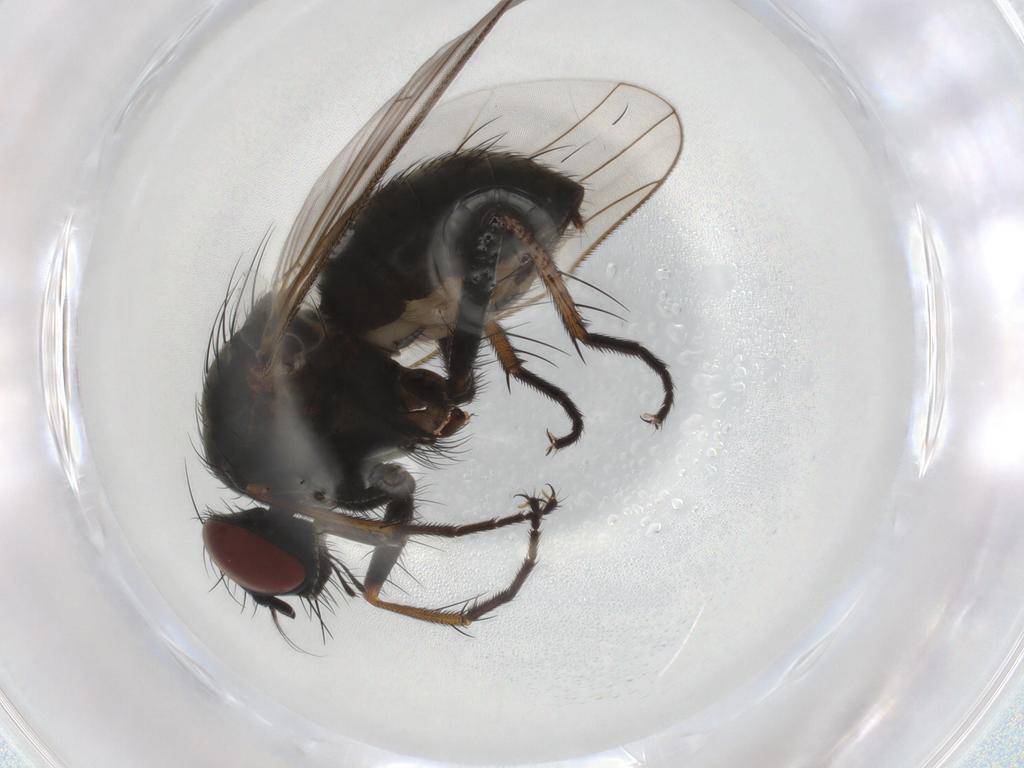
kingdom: Animalia
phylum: Arthropoda
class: Insecta
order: Diptera
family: Muscidae
